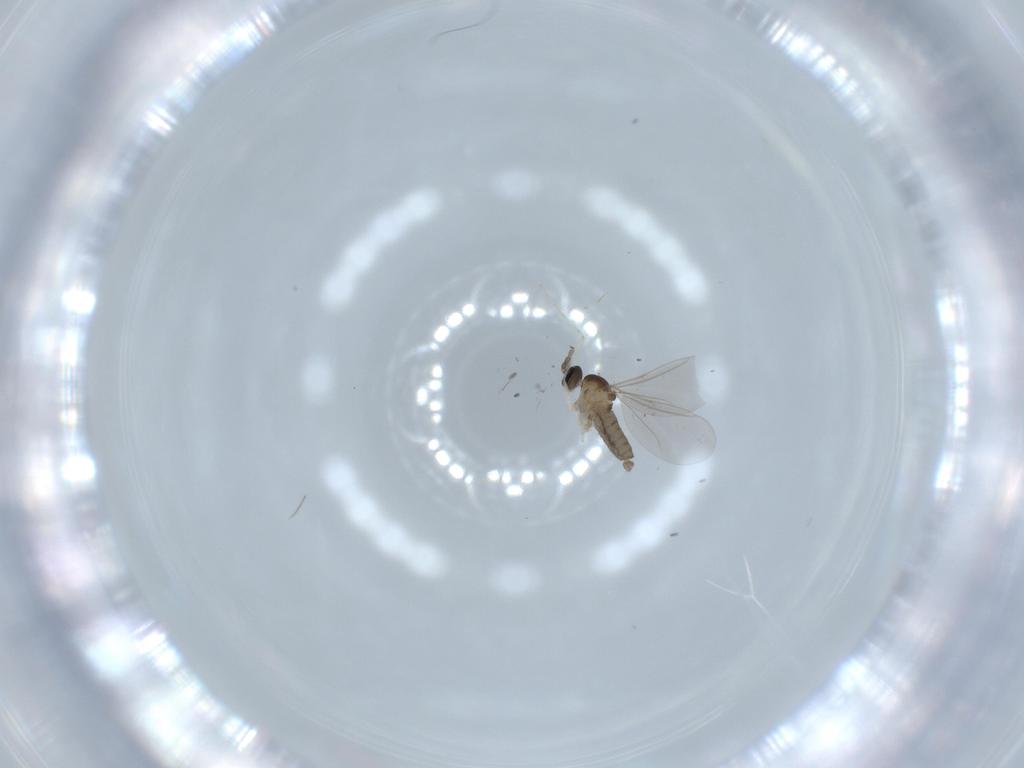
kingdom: Animalia
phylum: Arthropoda
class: Insecta
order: Diptera
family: Cecidomyiidae
